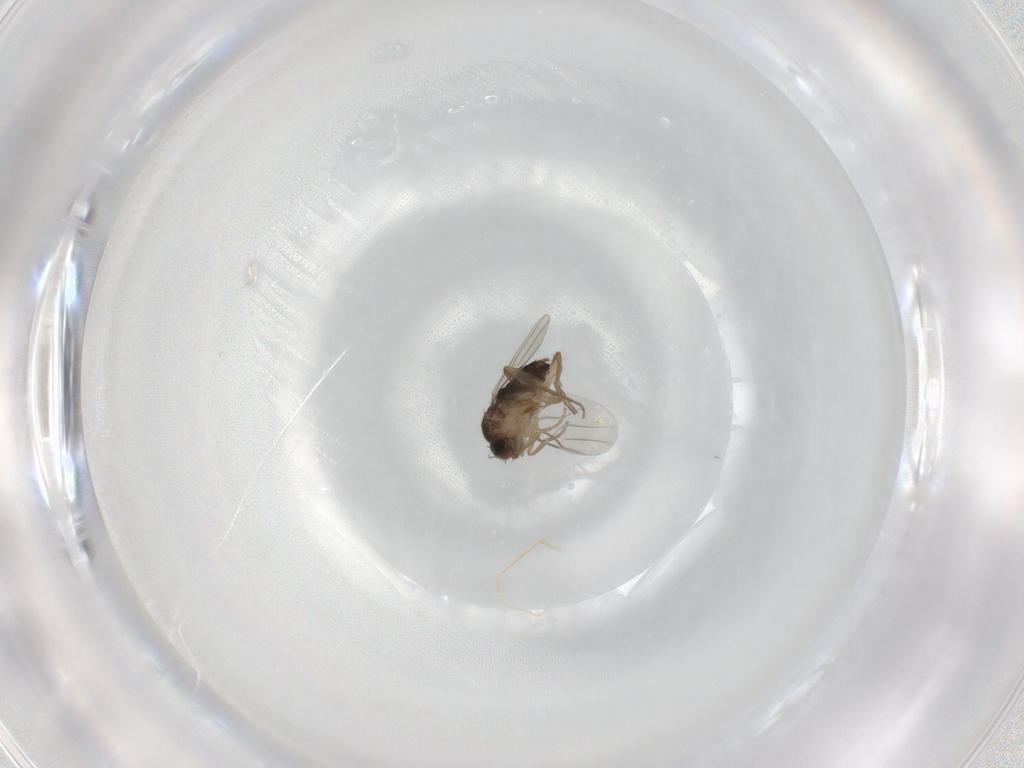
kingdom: Animalia
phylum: Arthropoda
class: Insecta
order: Diptera
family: Phoridae
